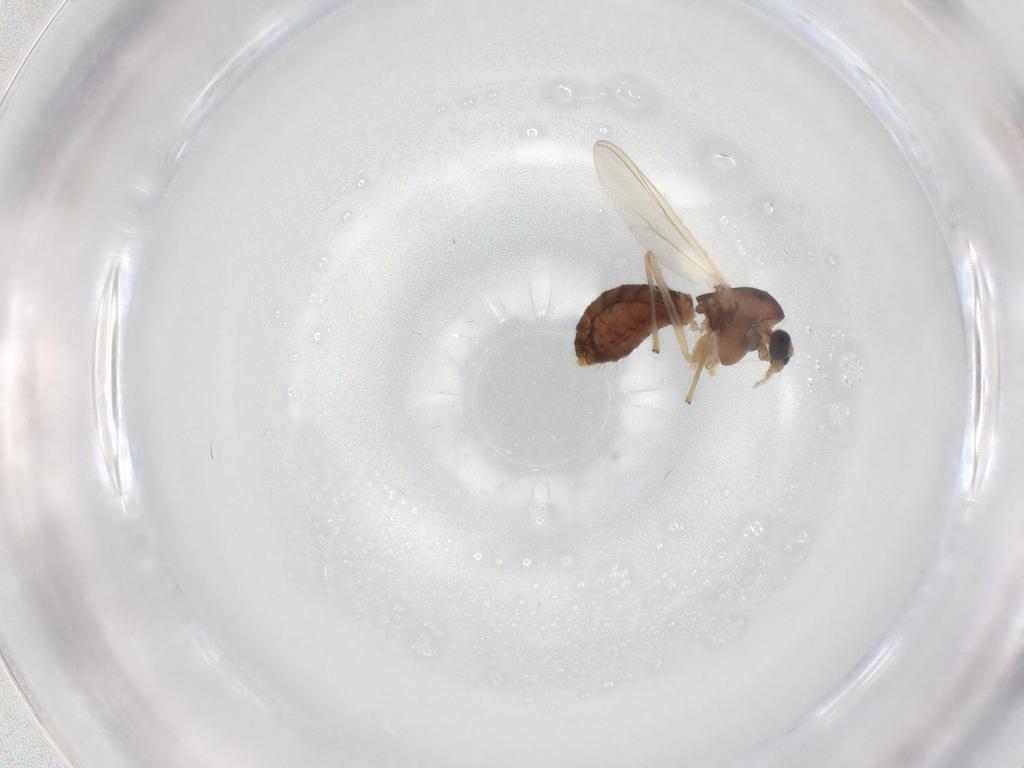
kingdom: Animalia
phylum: Arthropoda
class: Insecta
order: Diptera
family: Chironomidae
